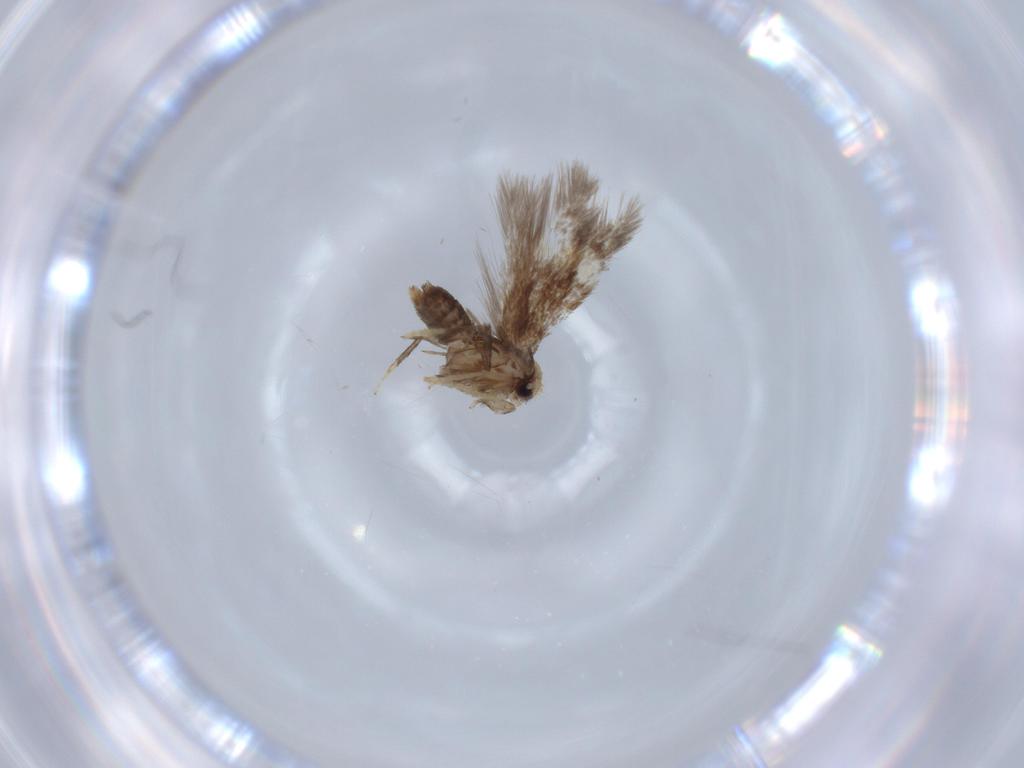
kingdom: Animalia
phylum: Arthropoda
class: Insecta
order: Lepidoptera
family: Nepticulidae
